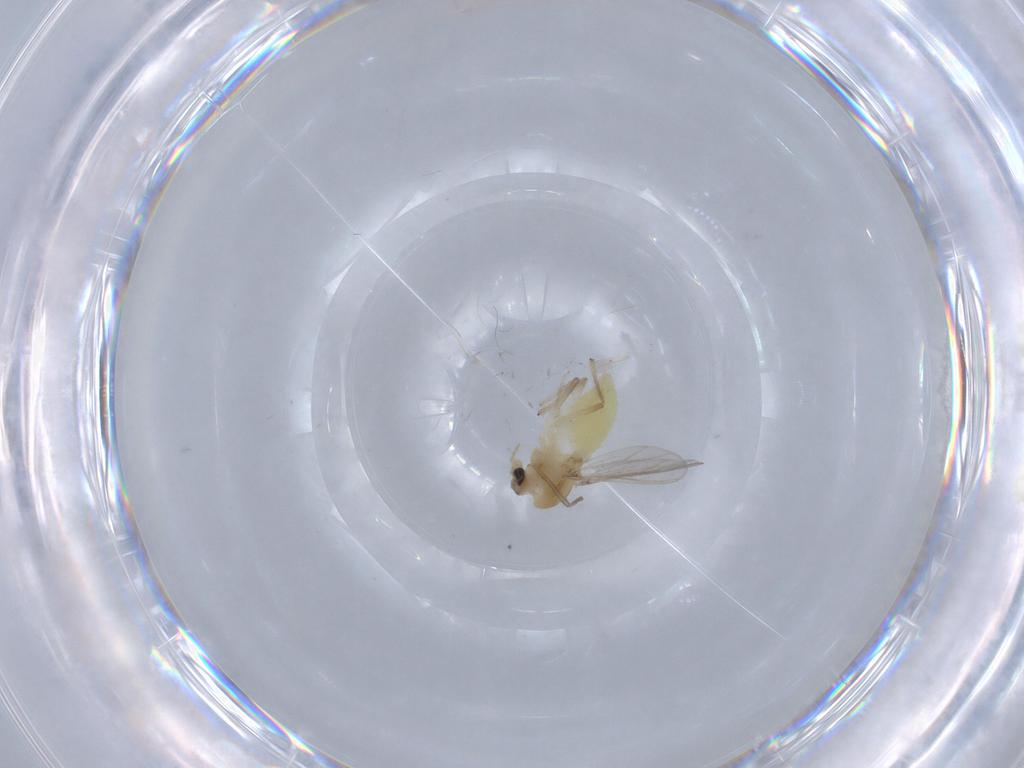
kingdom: Animalia
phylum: Arthropoda
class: Insecta
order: Diptera
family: Chironomidae
